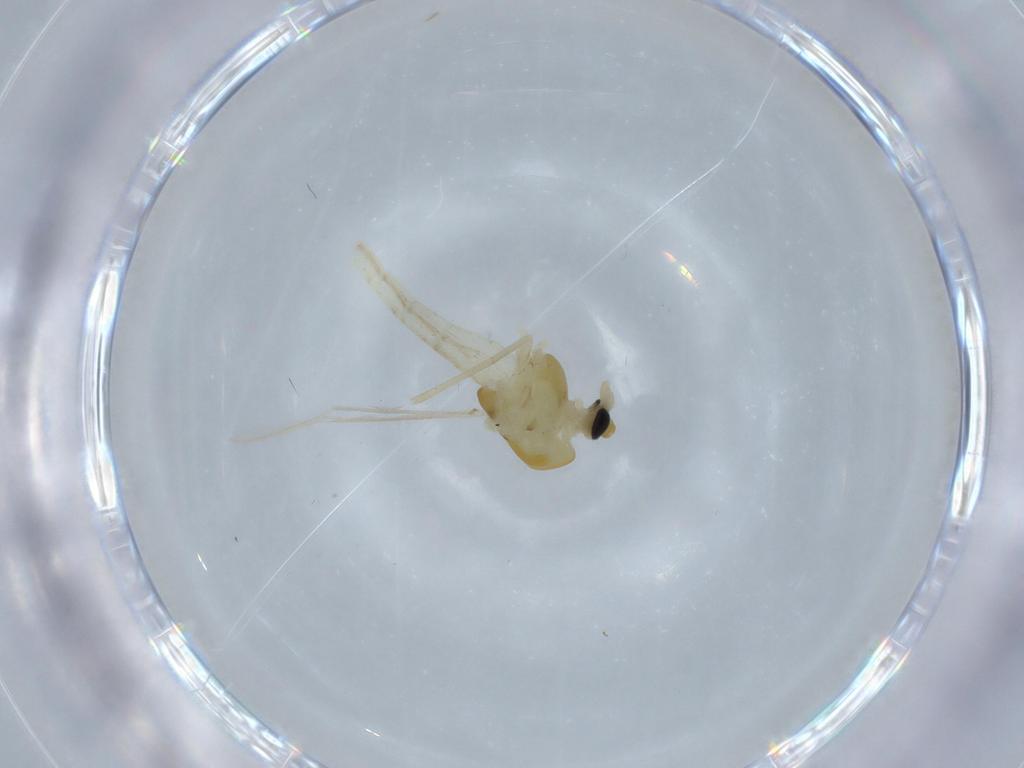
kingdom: Animalia
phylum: Arthropoda
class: Insecta
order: Diptera
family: Chironomidae
